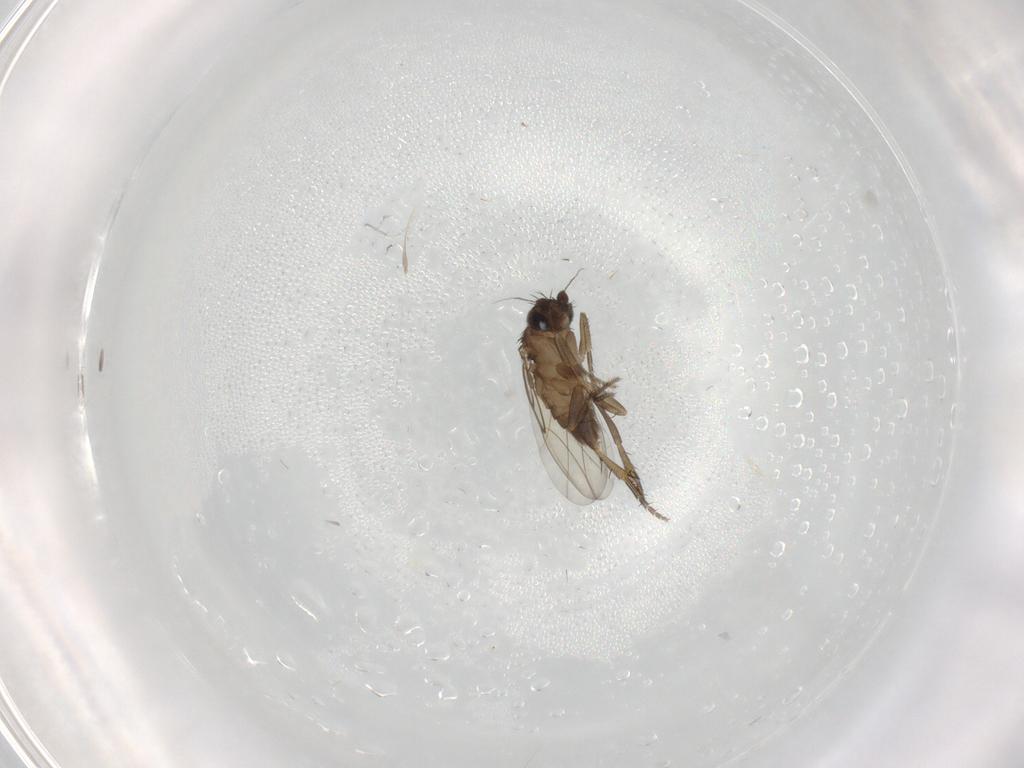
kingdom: Animalia
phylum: Arthropoda
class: Insecta
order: Diptera
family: Phoridae
